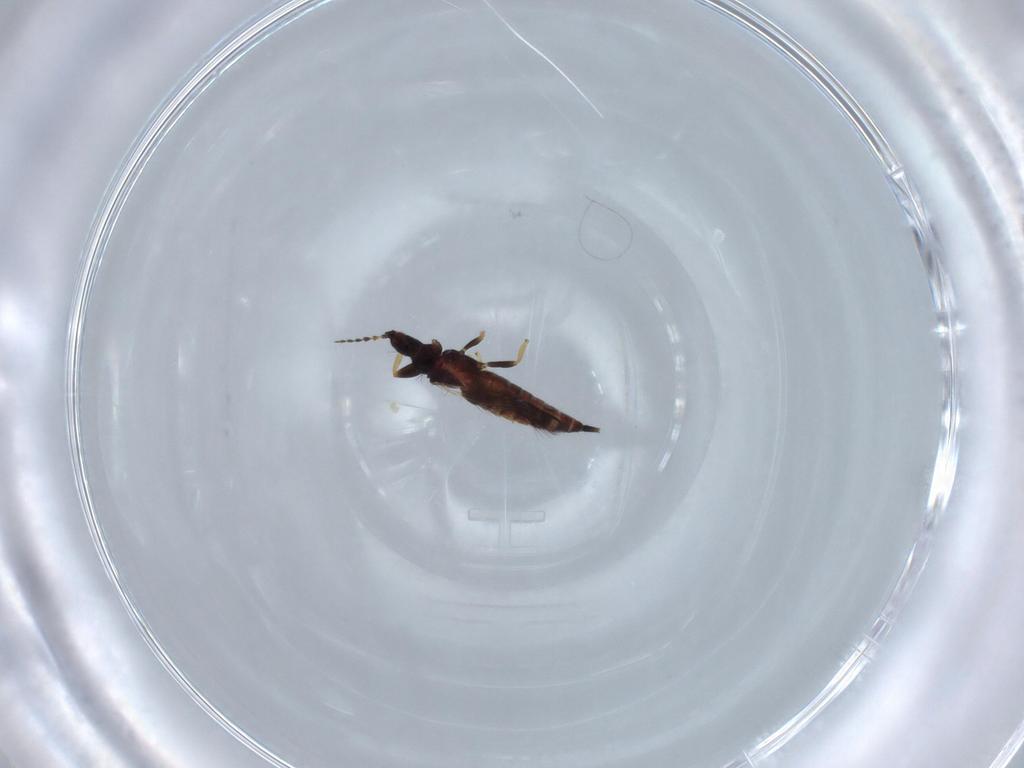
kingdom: Animalia
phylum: Arthropoda
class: Insecta
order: Thysanoptera
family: Phlaeothripidae
